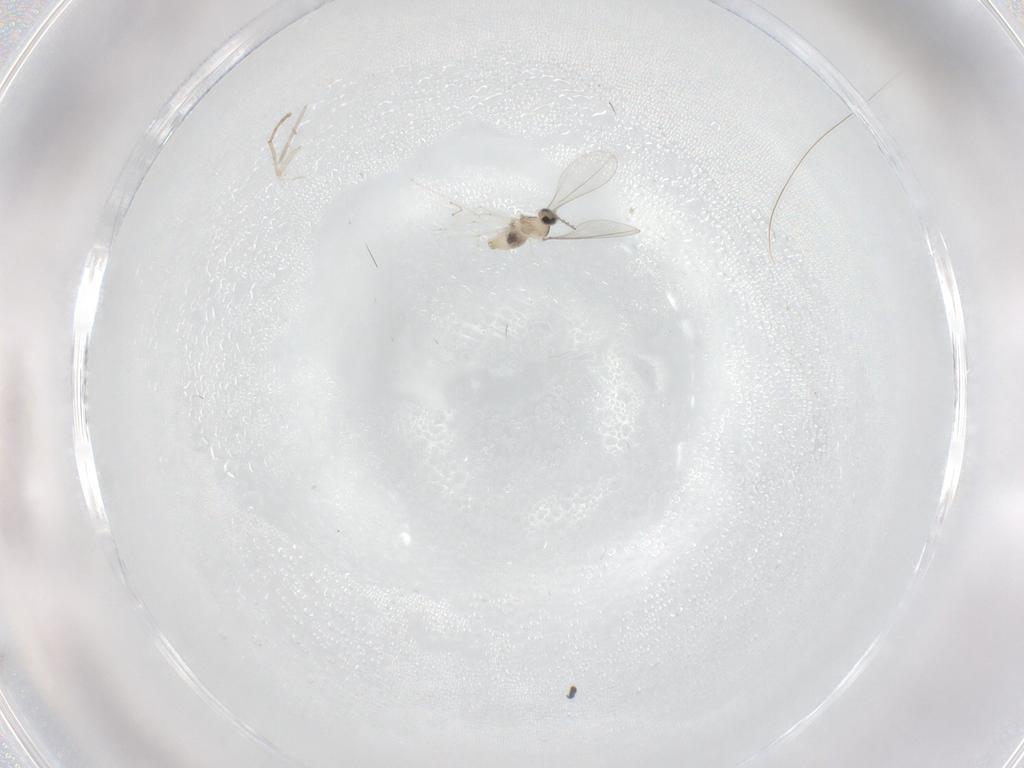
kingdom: Animalia
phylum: Arthropoda
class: Insecta
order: Diptera
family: Cecidomyiidae
